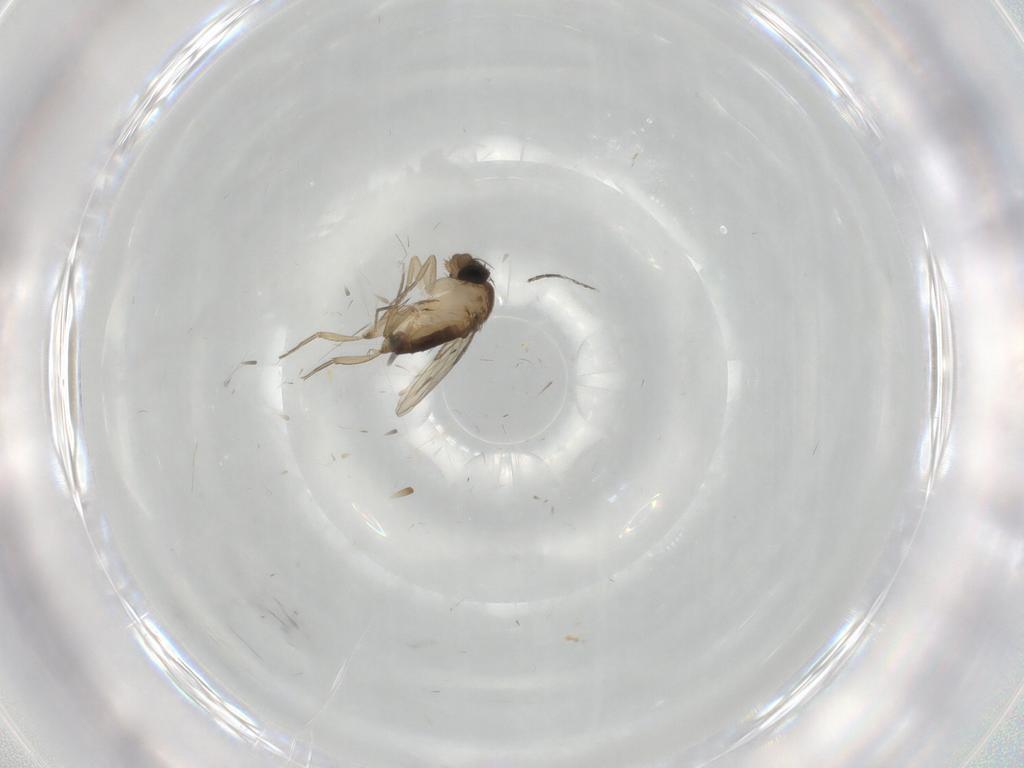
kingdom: Animalia
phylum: Arthropoda
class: Insecta
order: Diptera
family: Phoridae
